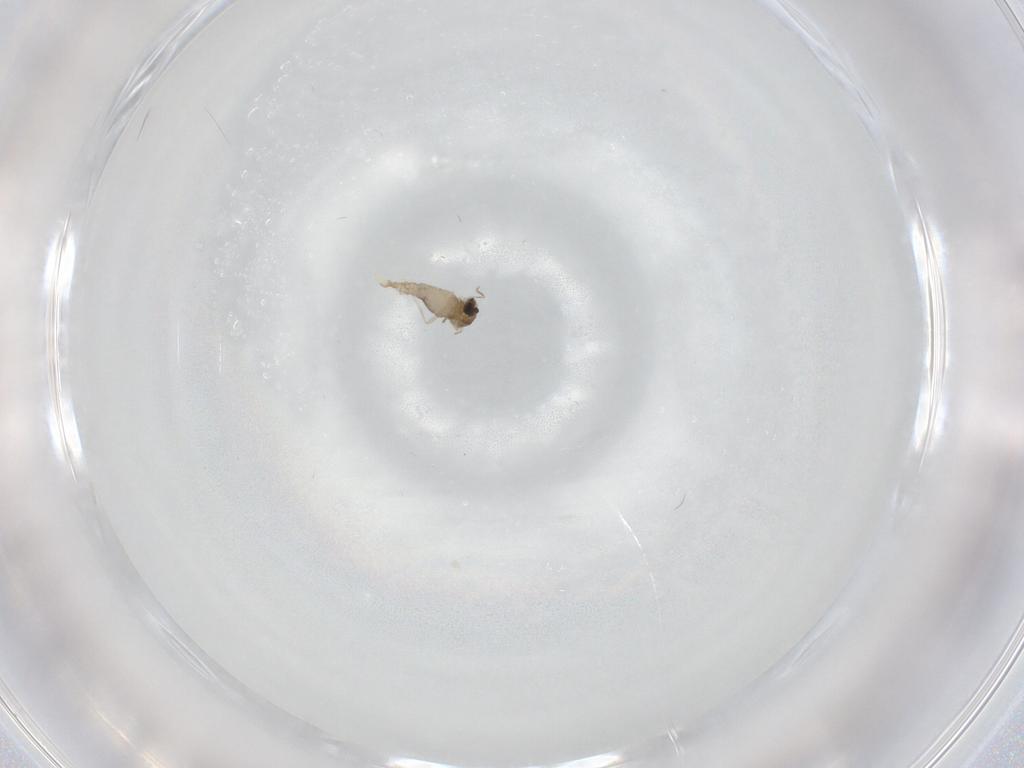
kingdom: Animalia
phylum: Arthropoda
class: Insecta
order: Diptera
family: Cecidomyiidae
